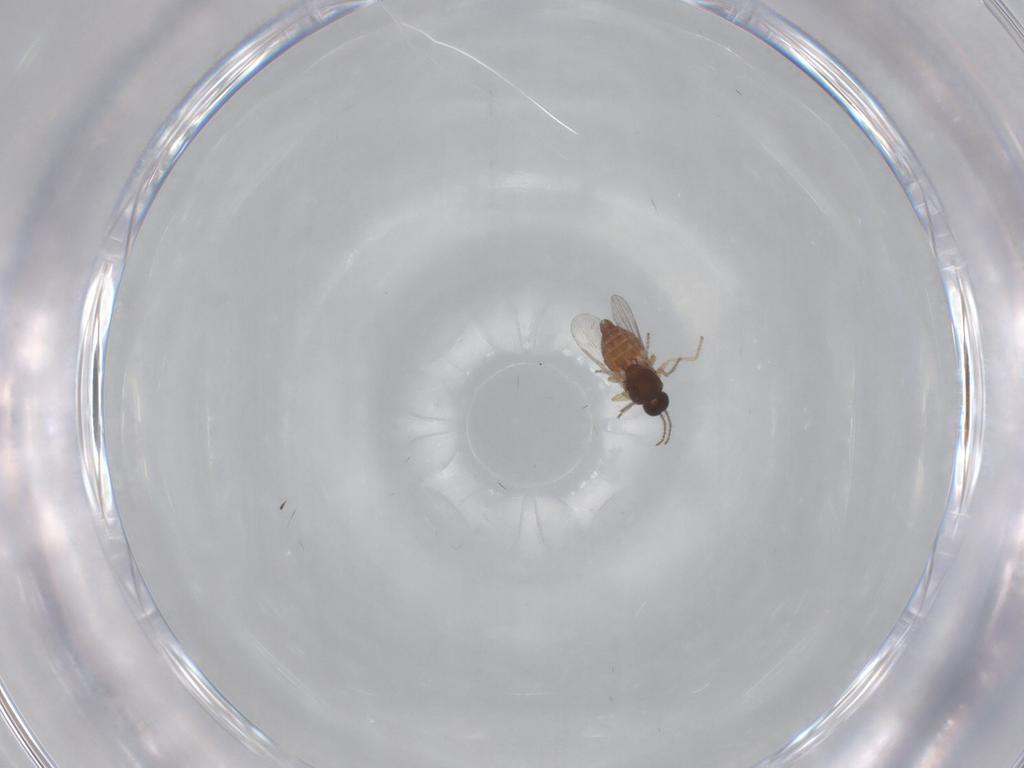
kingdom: Animalia
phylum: Arthropoda
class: Insecta
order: Diptera
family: Ceratopogonidae
